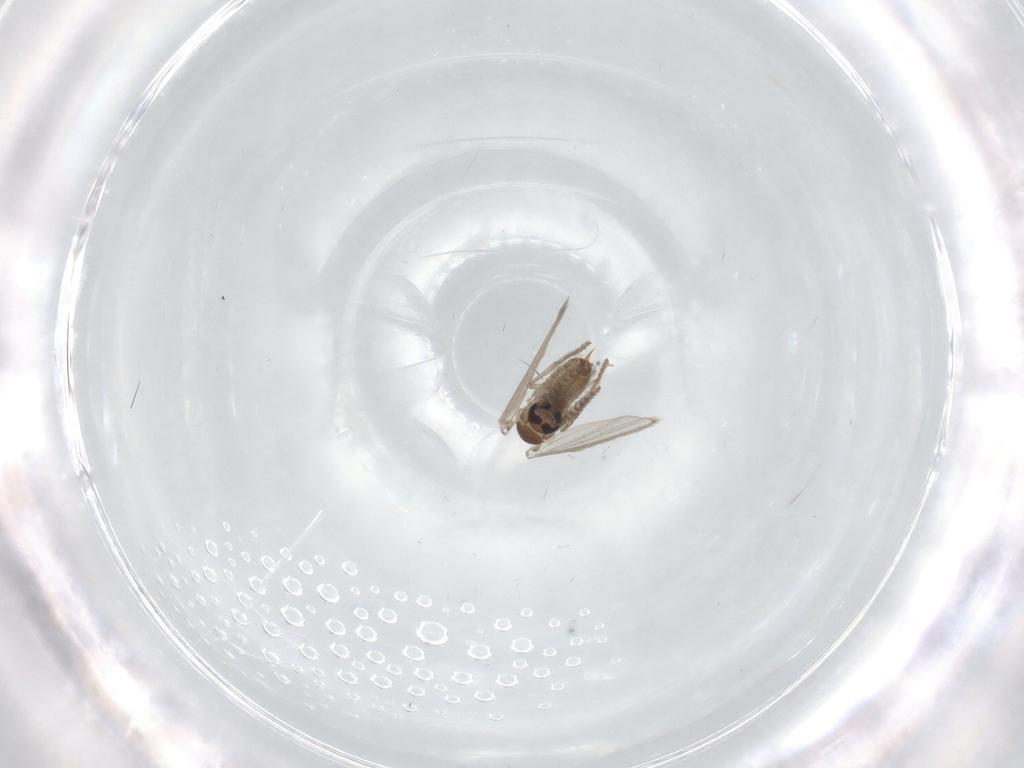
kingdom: Animalia
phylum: Arthropoda
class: Insecta
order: Diptera
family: Psychodidae
